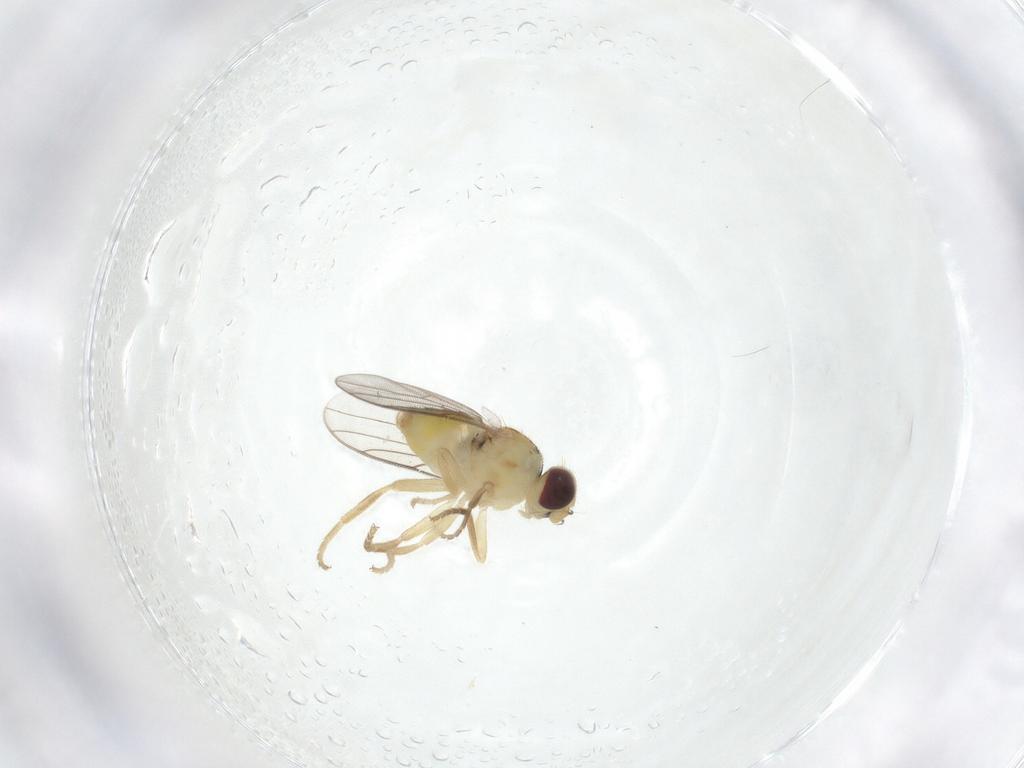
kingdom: Animalia
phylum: Arthropoda
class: Insecta
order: Diptera
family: Chloropidae
